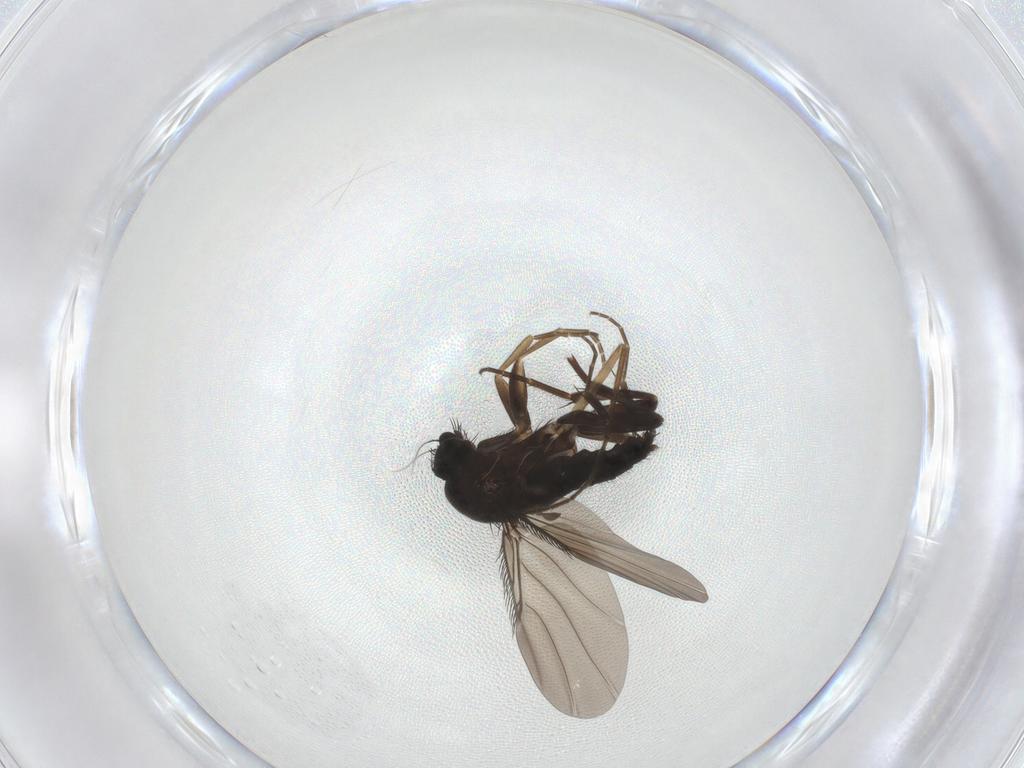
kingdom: Animalia
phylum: Arthropoda
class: Insecta
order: Diptera
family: Phoridae
